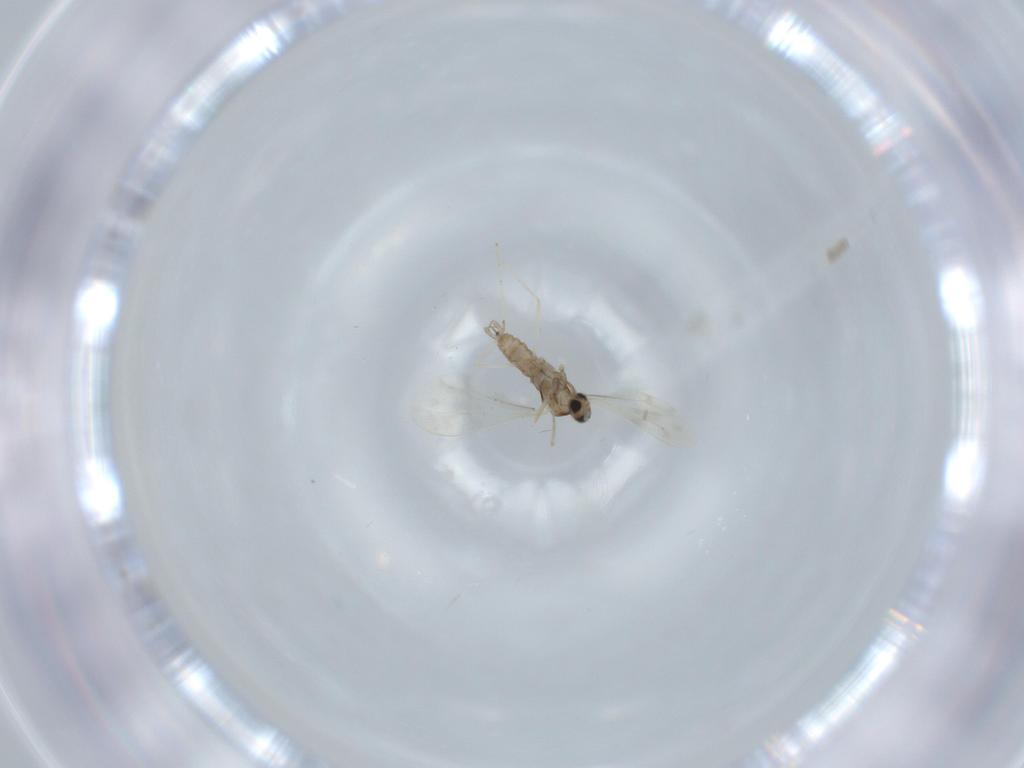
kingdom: Animalia
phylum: Arthropoda
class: Insecta
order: Diptera
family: Cecidomyiidae
